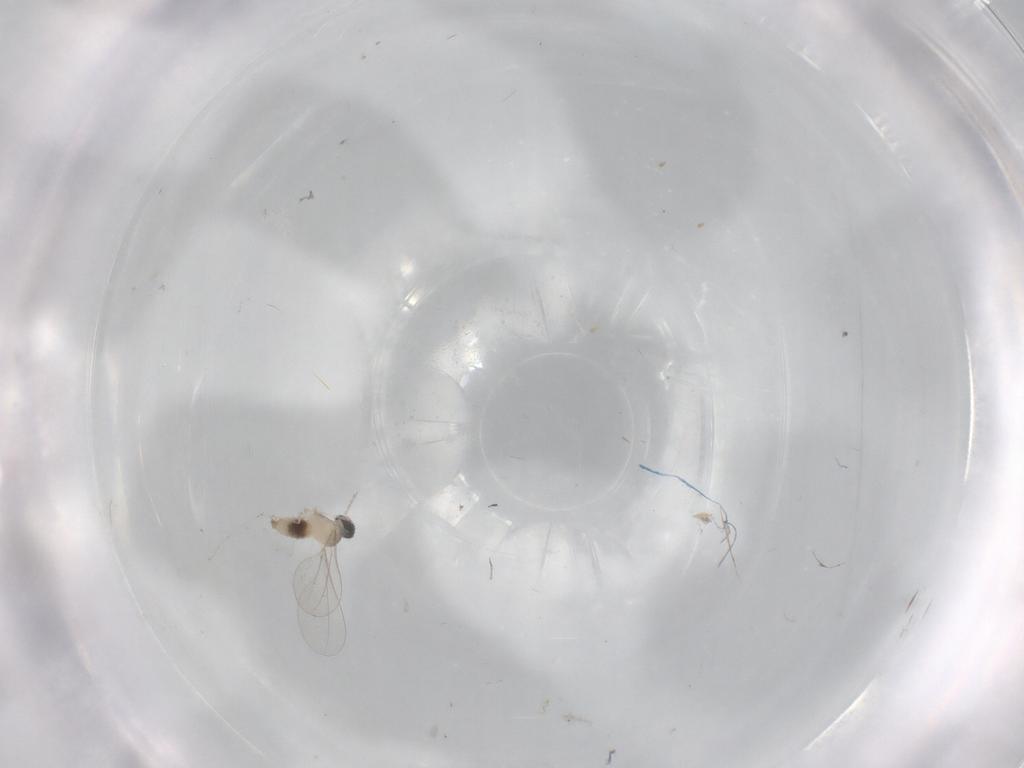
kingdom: Animalia
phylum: Arthropoda
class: Insecta
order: Diptera
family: Cecidomyiidae
